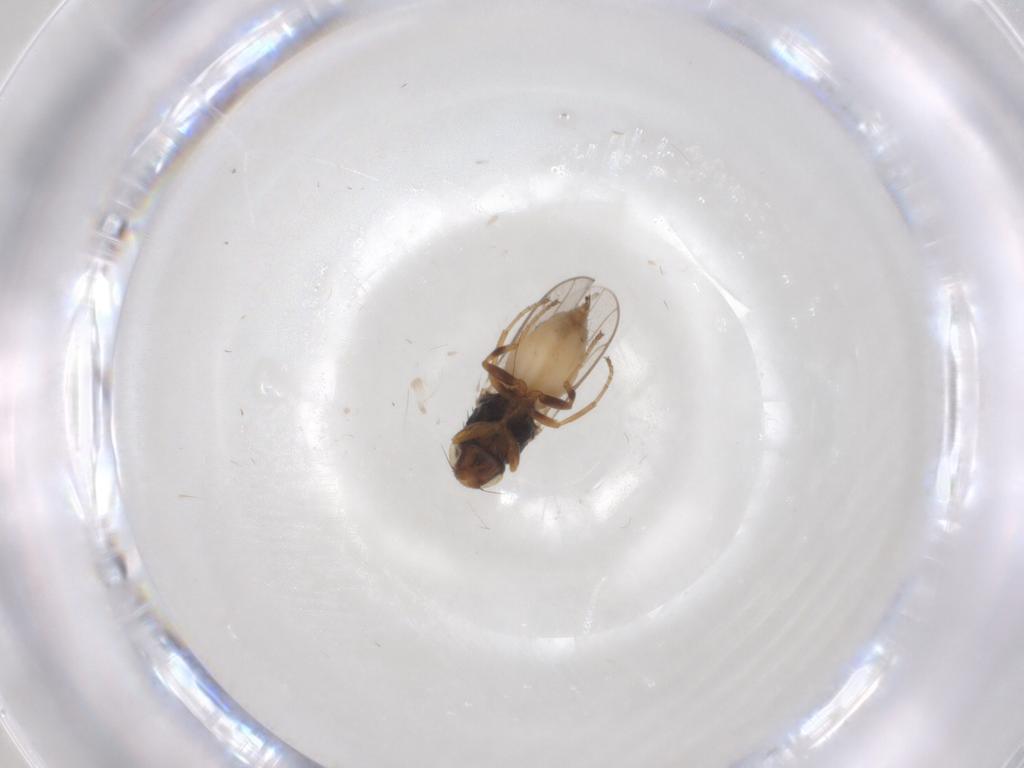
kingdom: Animalia
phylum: Arthropoda
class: Insecta
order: Diptera
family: Chloropidae
